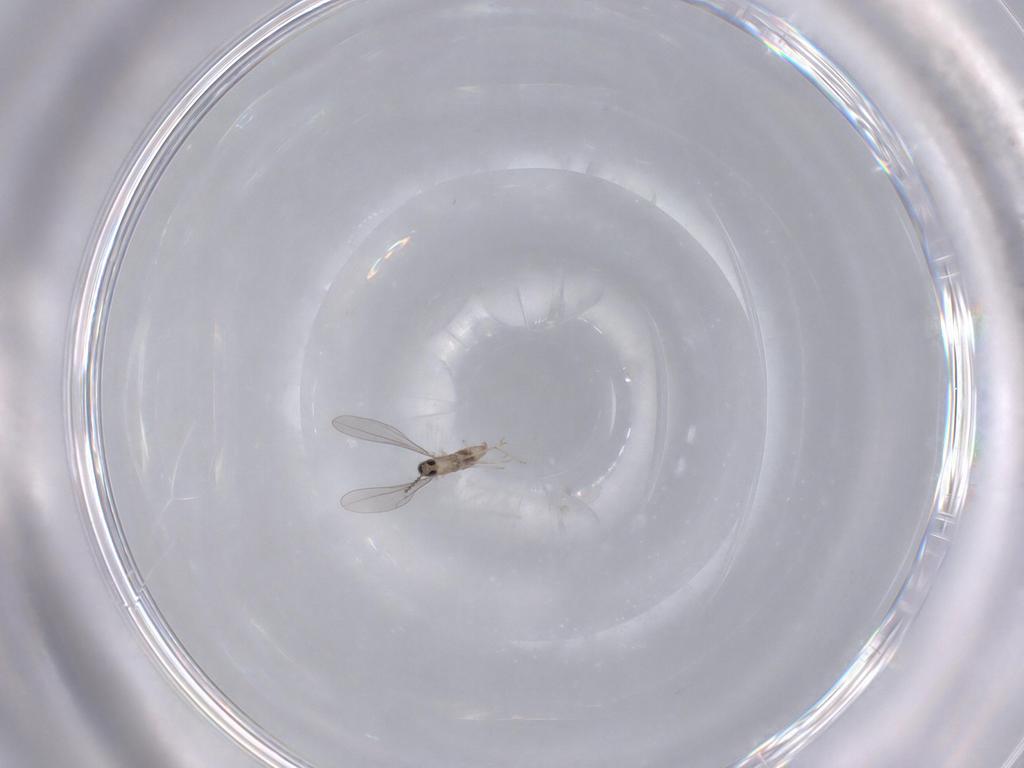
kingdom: Animalia
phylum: Arthropoda
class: Insecta
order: Diptera
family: Cecidomyiidae
